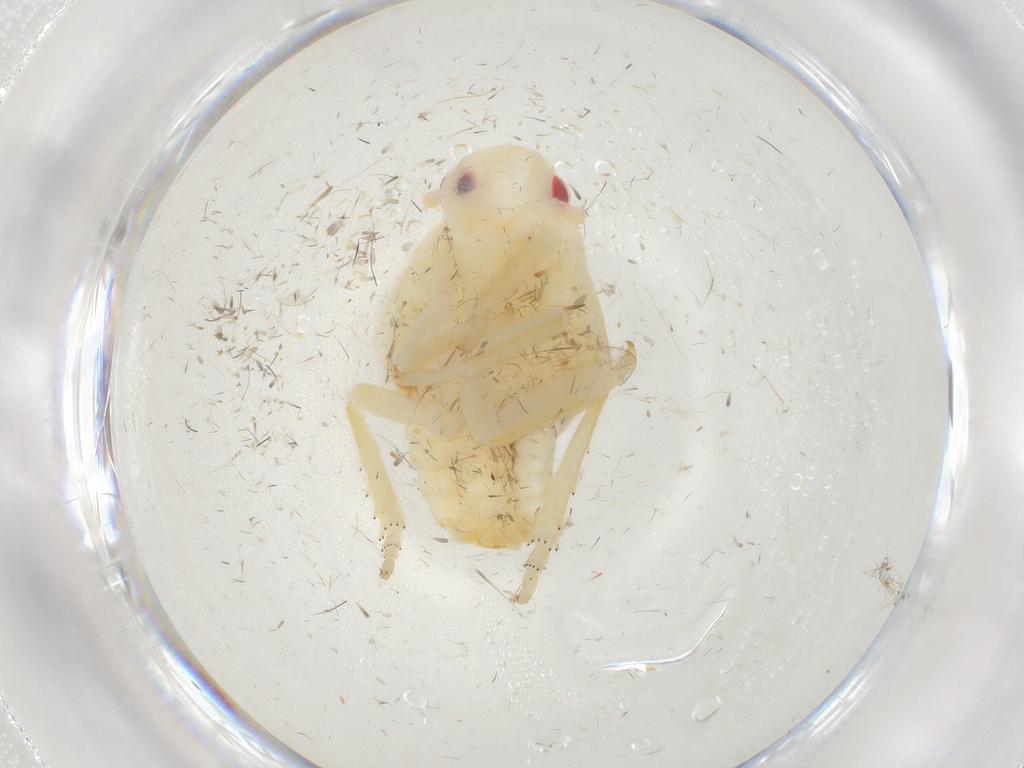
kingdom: Animalia
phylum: Arthropoda
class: Insecta
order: Hemiptera
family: Flatidae
